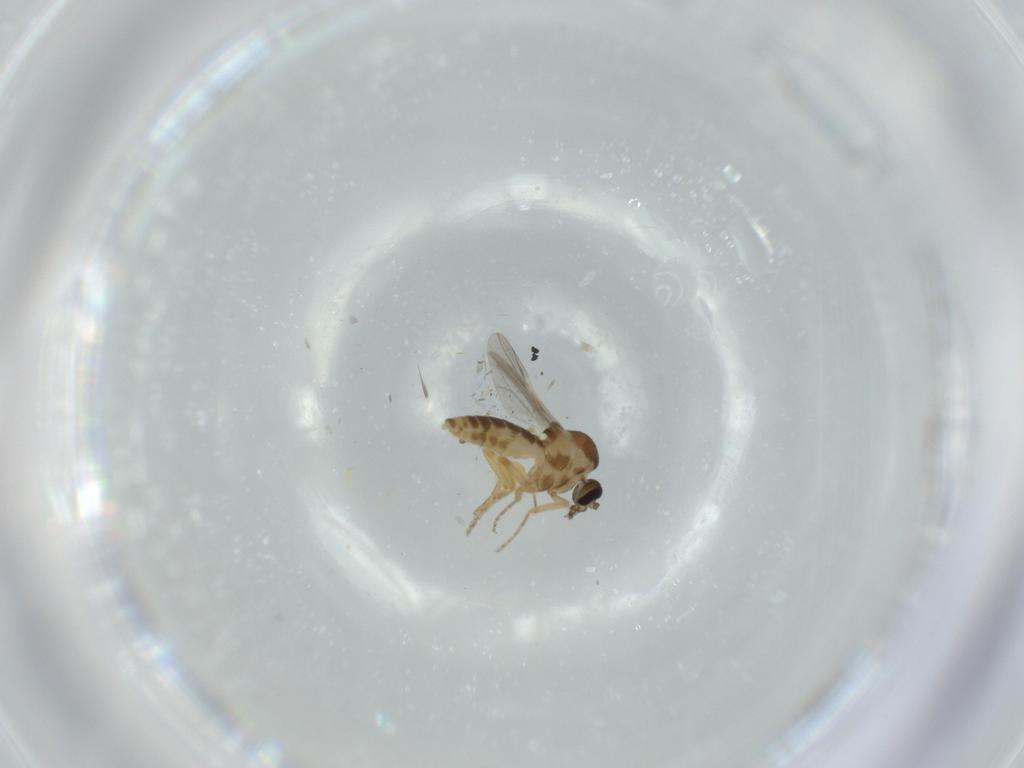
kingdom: Animalia
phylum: Arthropoda
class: Insecta
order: Diptera
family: Ceratopogonidae
